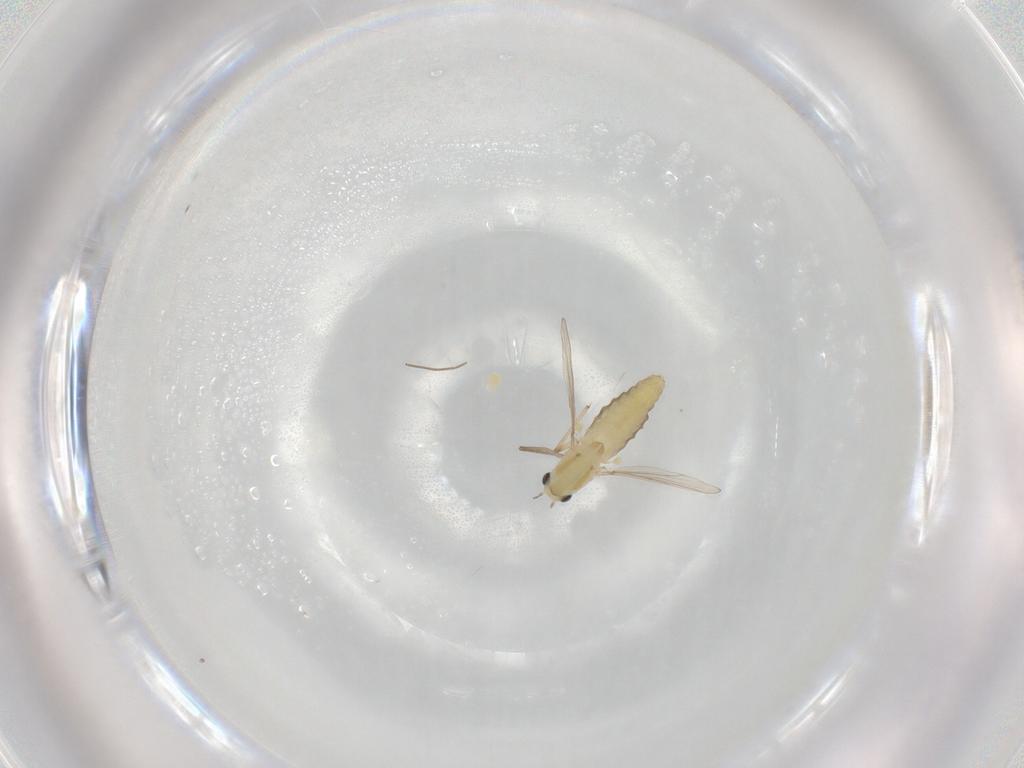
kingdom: Animalia
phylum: Arthropoda
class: Insecta
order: Diptera
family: Chironomidae
